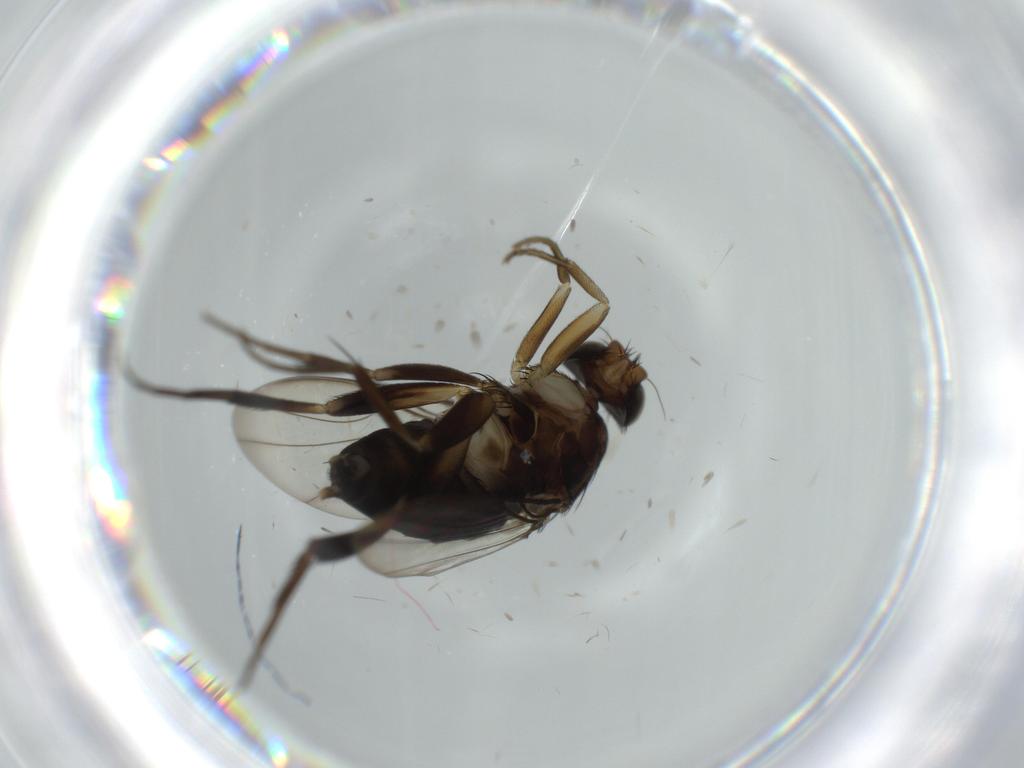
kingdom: Animalia
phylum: Arthropoda
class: Insecta
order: Diptera
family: Phoridae
